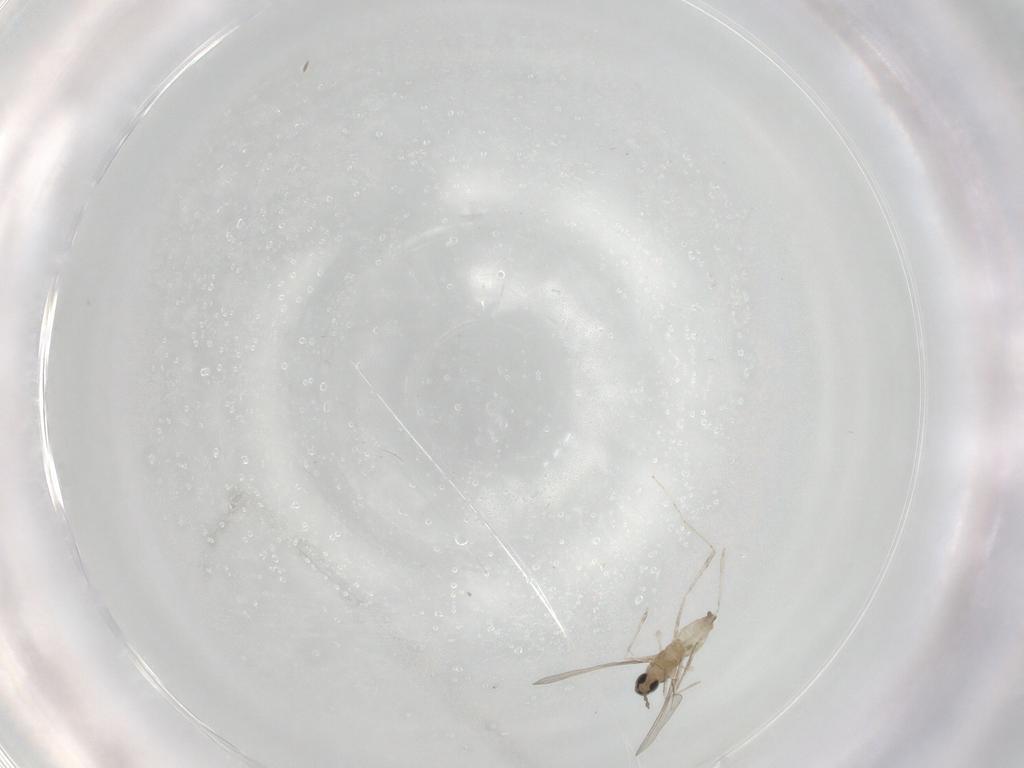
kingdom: Animalia
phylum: Arthropoda
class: Insecta
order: Diptera
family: Cecidomyiidae
